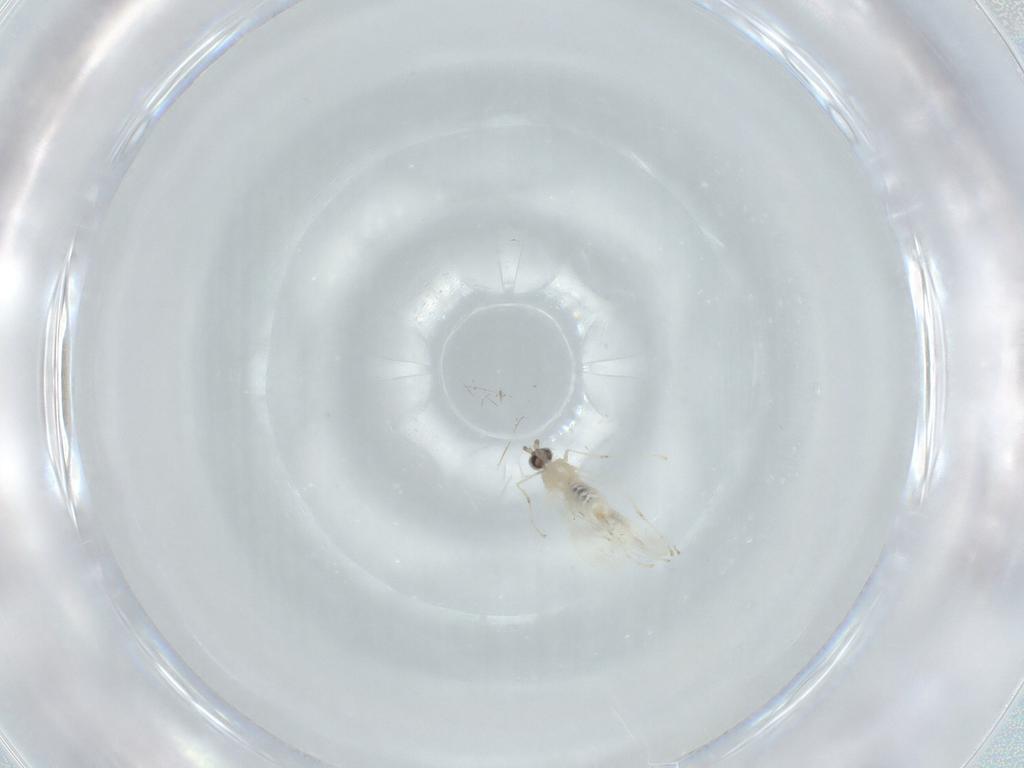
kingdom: Animalia
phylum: Arthropoda
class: Insecta
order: Diptera
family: Cecidomyiidae
